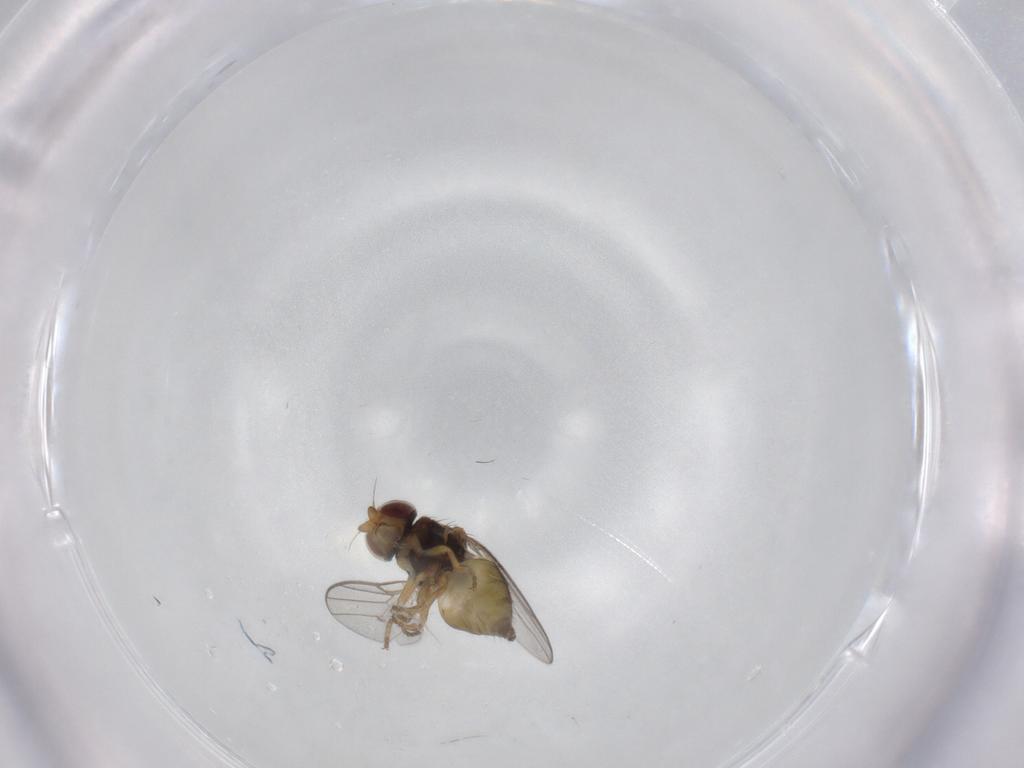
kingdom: Animalia
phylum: Arthropoda
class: Insecta
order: Diptera
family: Chloropidae
